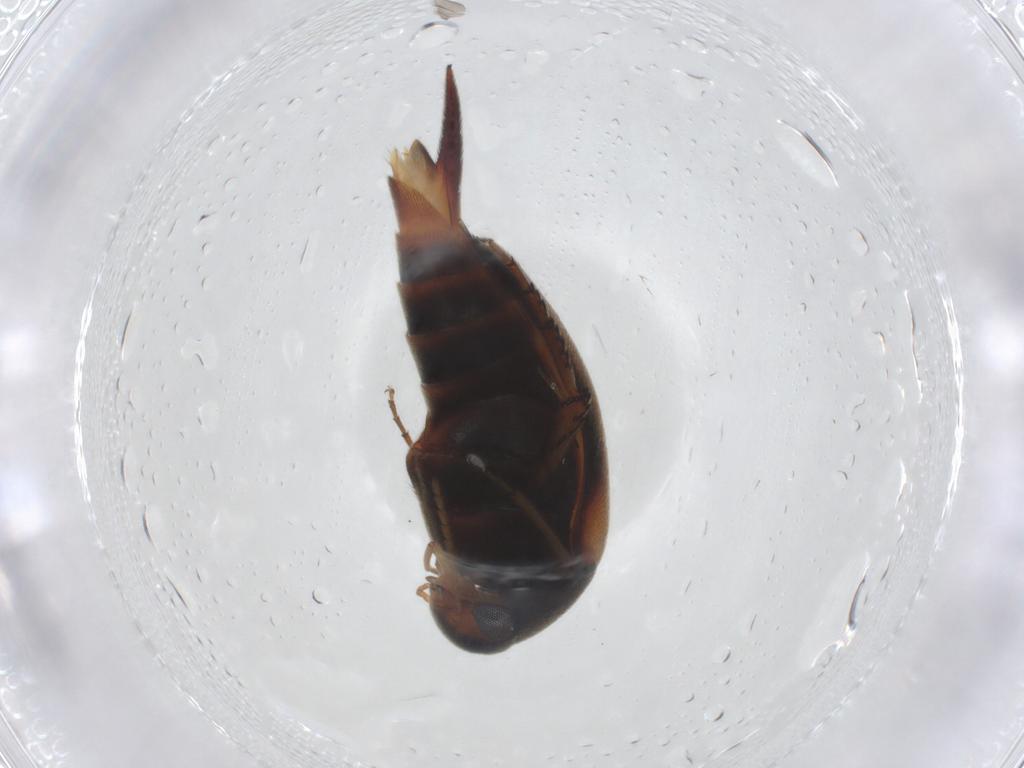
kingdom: Animalia
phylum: Arthropoda
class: Insecta
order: Coleoptera
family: Mordellidae
